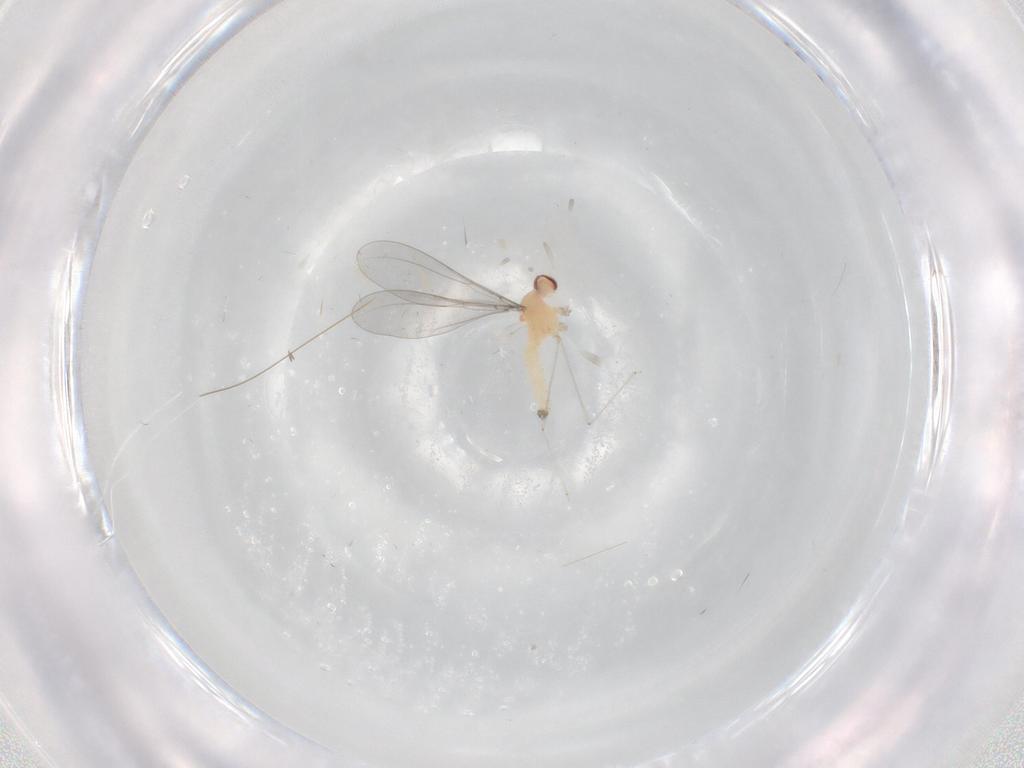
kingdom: Animalia
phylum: Arthropoda
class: Insecta
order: Diptera
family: Cecidomyiidae
